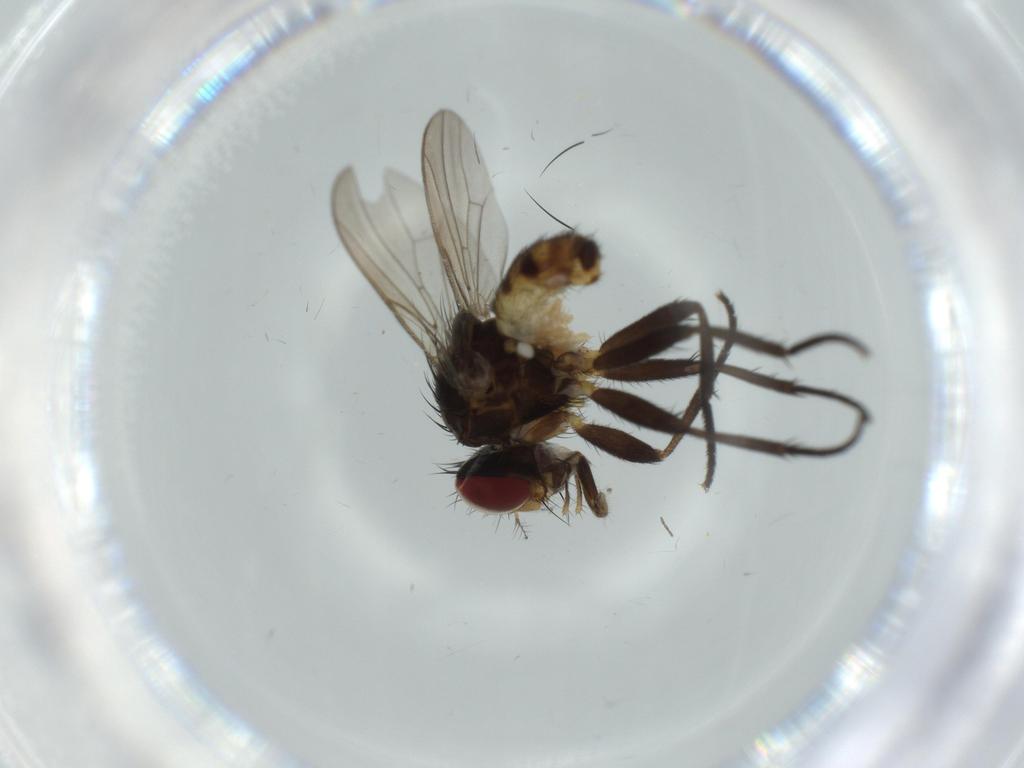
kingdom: Animalia
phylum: Arthropoda
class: Insecta
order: Diptera
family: Anthomyiidae
